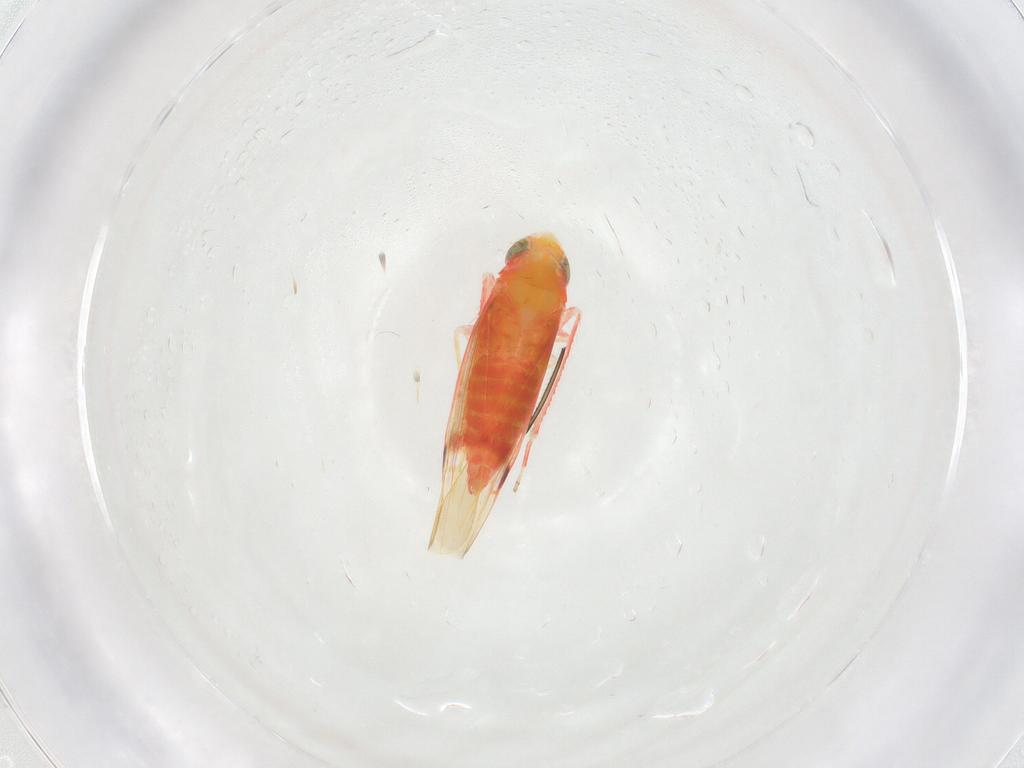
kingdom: Animalia
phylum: Arthropoda
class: Insecta
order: Hemiptera
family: Cicadellidae
